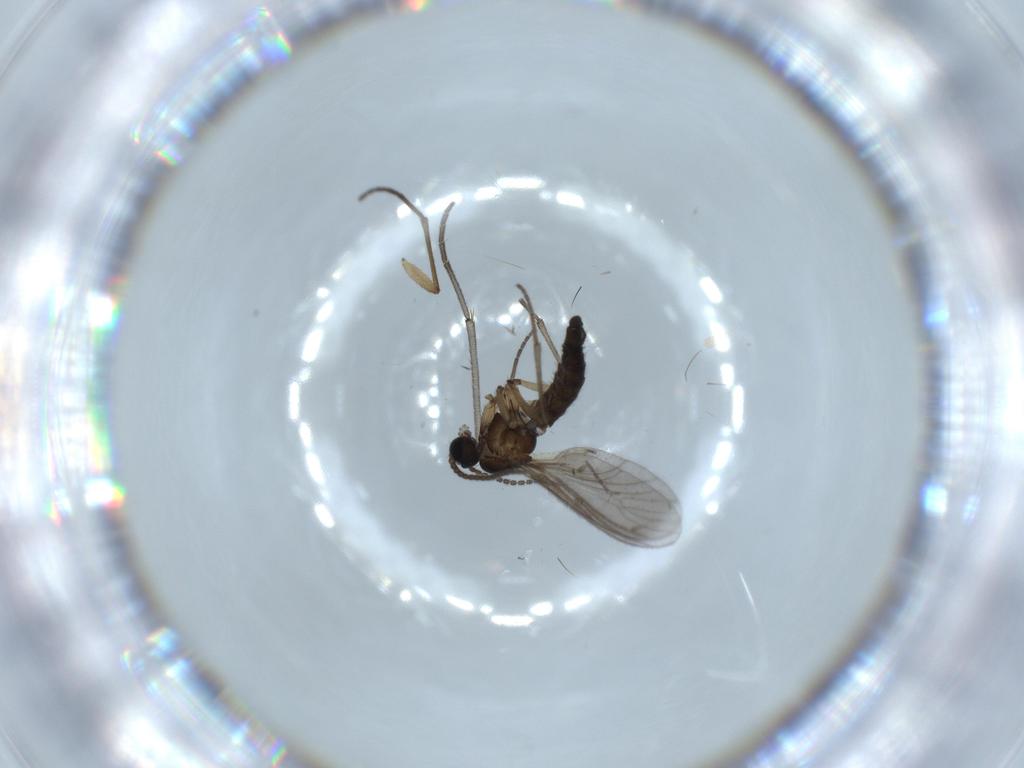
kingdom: Animalia
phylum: Arthropoda
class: Insecta
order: Diptera
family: Sciaridae
